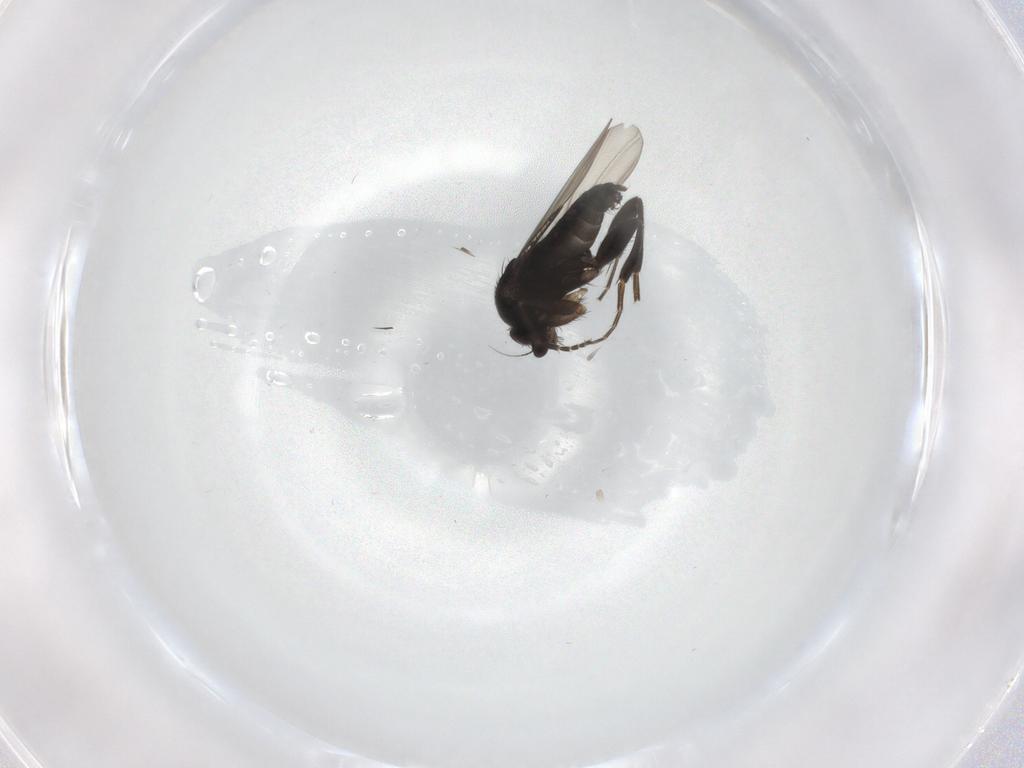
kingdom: Animalia
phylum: Arthropoda
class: Insecta
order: Diptera
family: Phoridae
